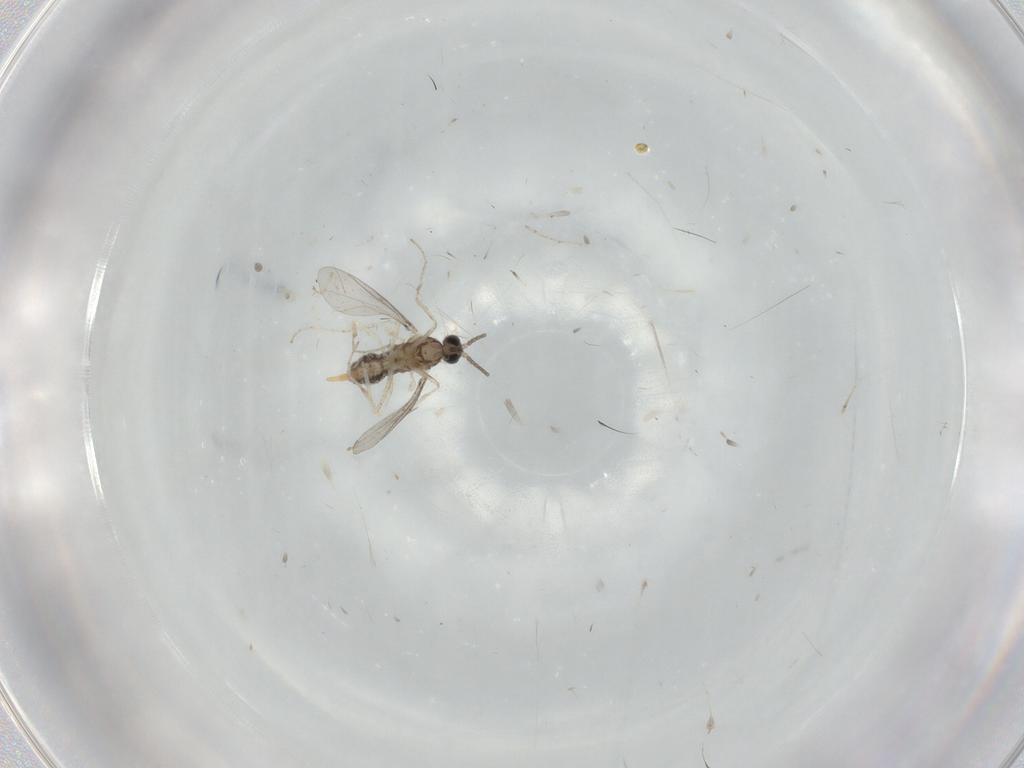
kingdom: Animalia
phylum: Arthropoda
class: Insecta
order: Diptera
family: Cecidomyiidae
